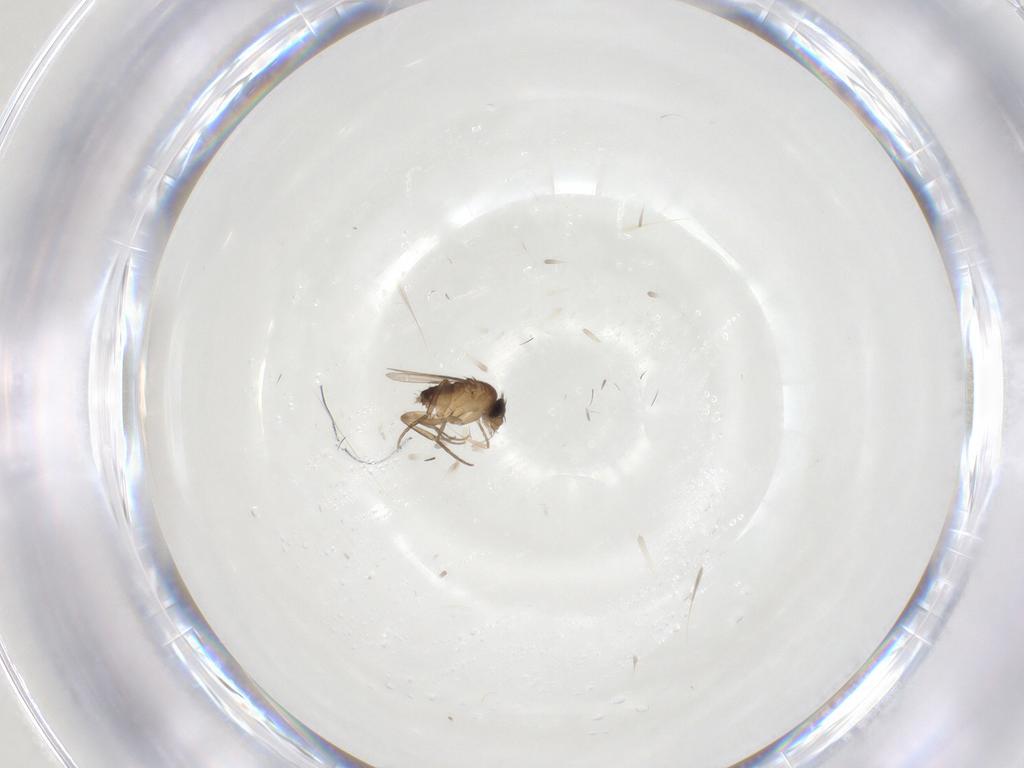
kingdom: Animalia
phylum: Arthropoda
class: Insecta
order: Diptera
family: Phoridae
